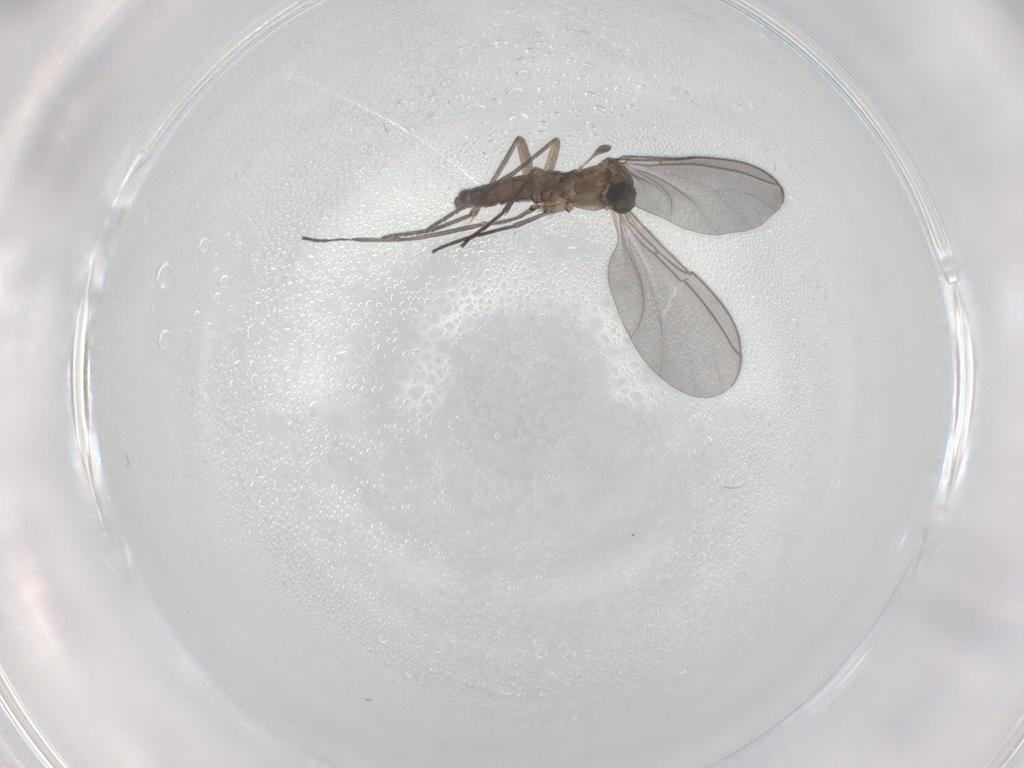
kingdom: Animalia
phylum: Arthropoda
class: Insecta
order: Diptera
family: Sciaridae
